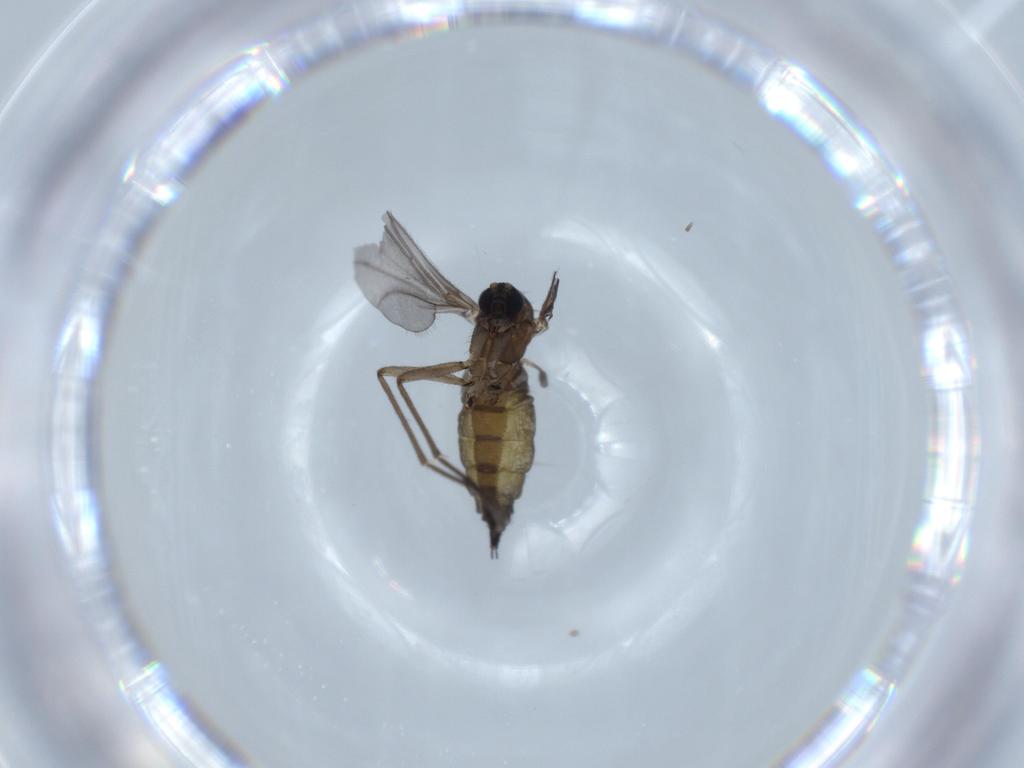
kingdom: Animalia
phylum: Arthropoda
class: Insecta
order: Diptera
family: Sciaridae
